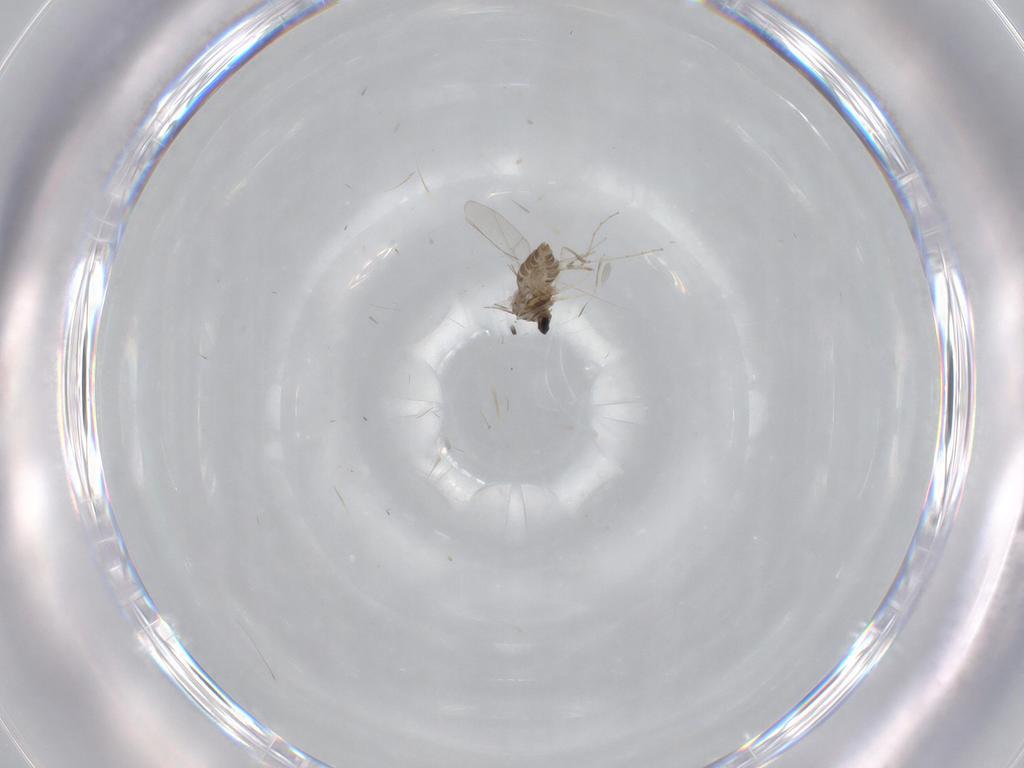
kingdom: Animalia
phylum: Arthropoda
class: Insecta
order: Diptera
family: Cecidomyiidae
